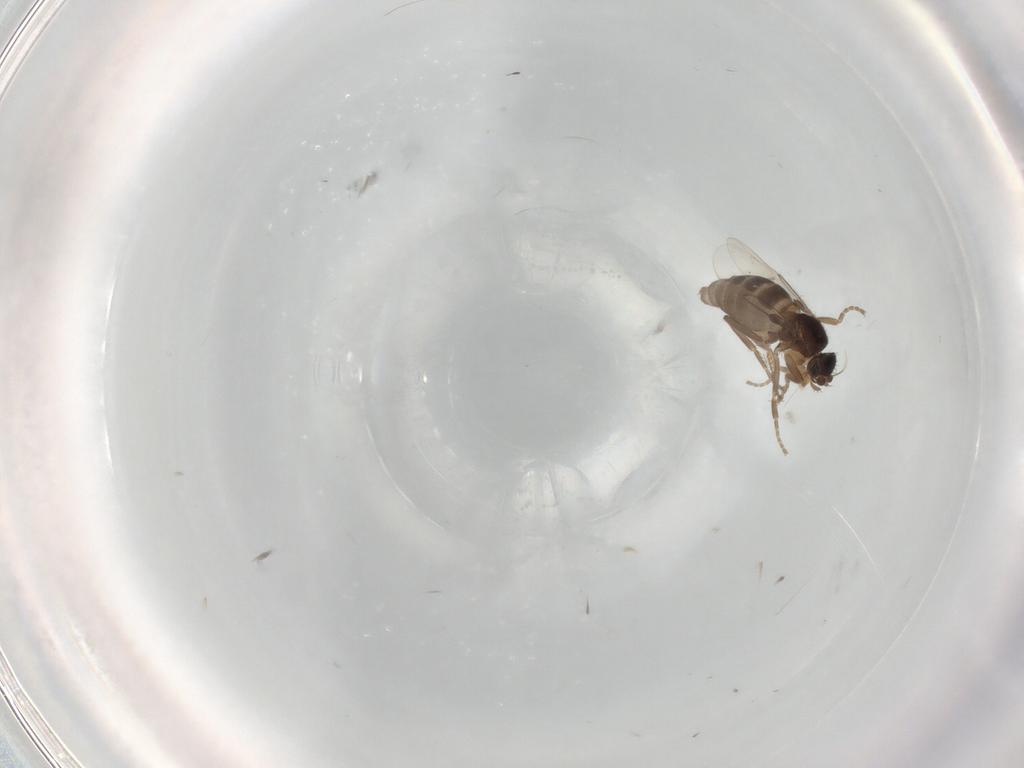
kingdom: Animalia
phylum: Arthropoda
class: Insecta
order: Diptera
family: Phoridae
